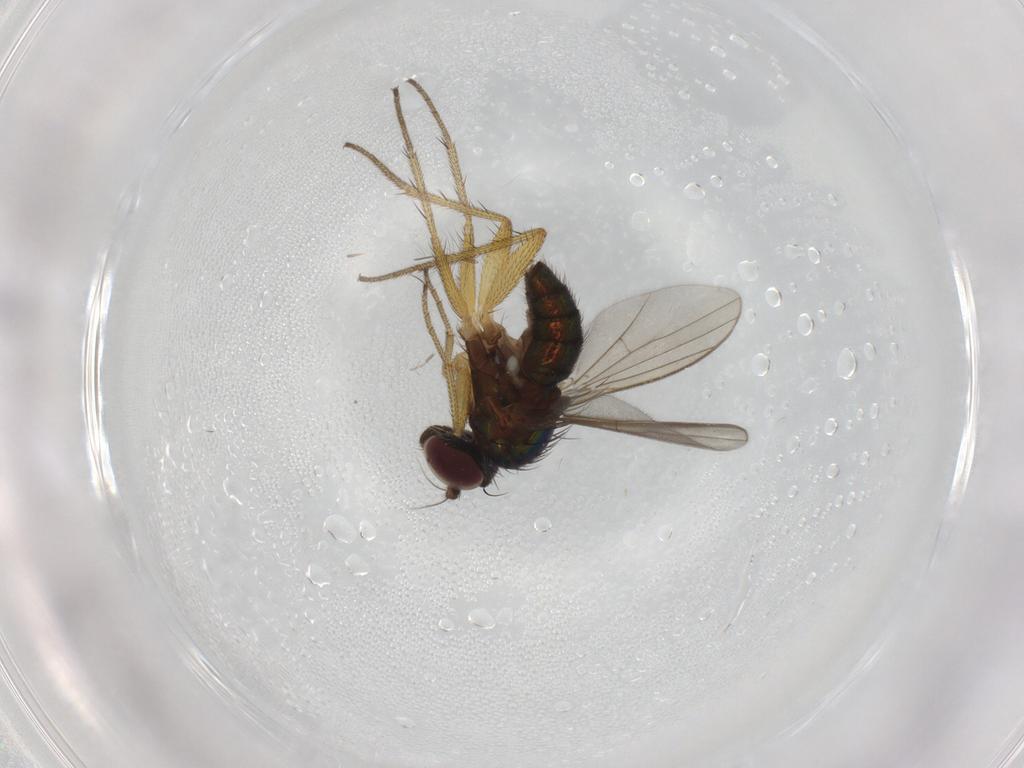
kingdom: Animalia
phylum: Arthropoda
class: Insecta
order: Diptera
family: Dolichopodidae
